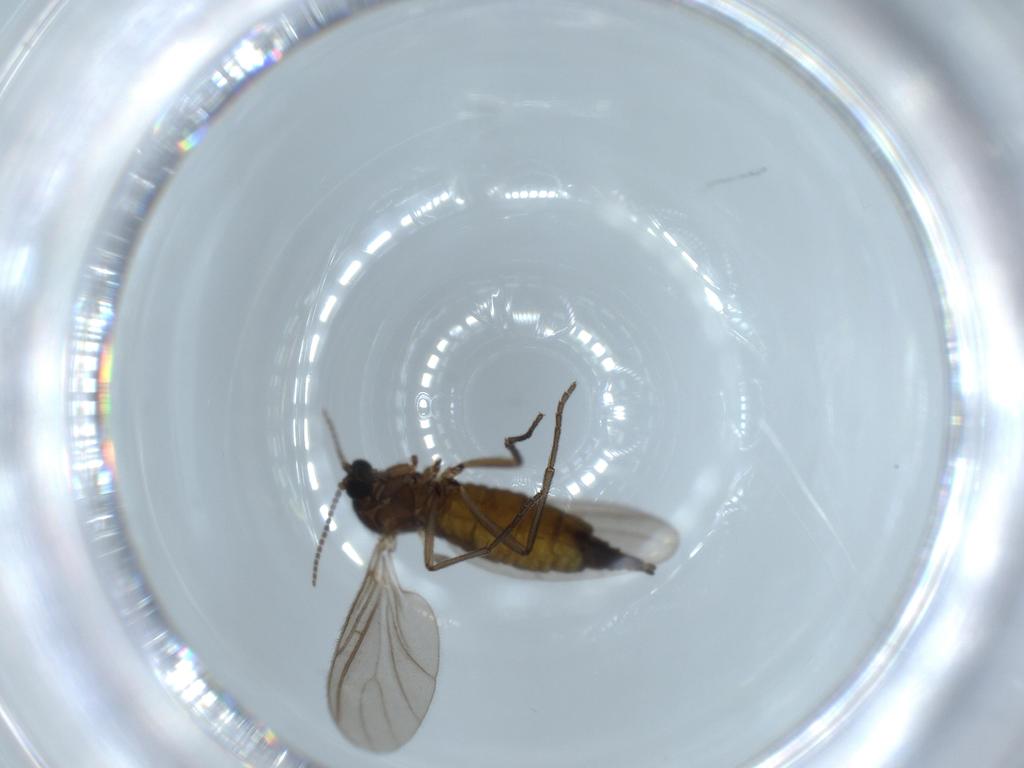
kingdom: Animalia
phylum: Arthropoda
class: Insecta
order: Diptera
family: Sciaridae
